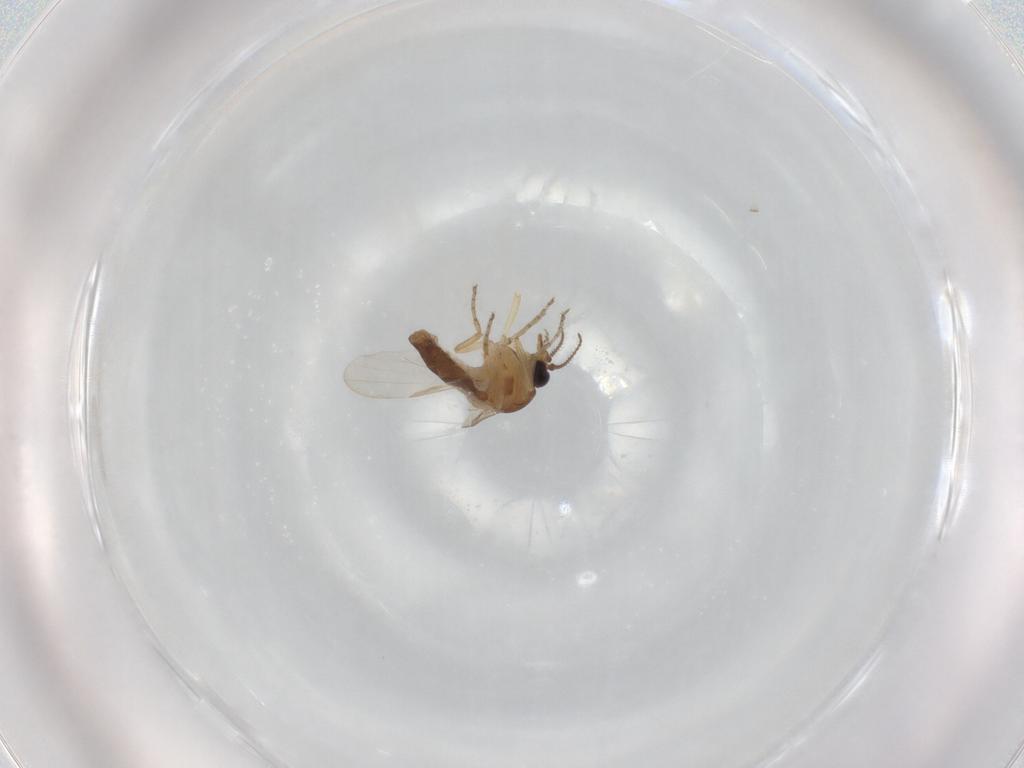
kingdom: Animalia
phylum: Arthropoda
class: Insecta
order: Diptera
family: Ceratopogonidae
